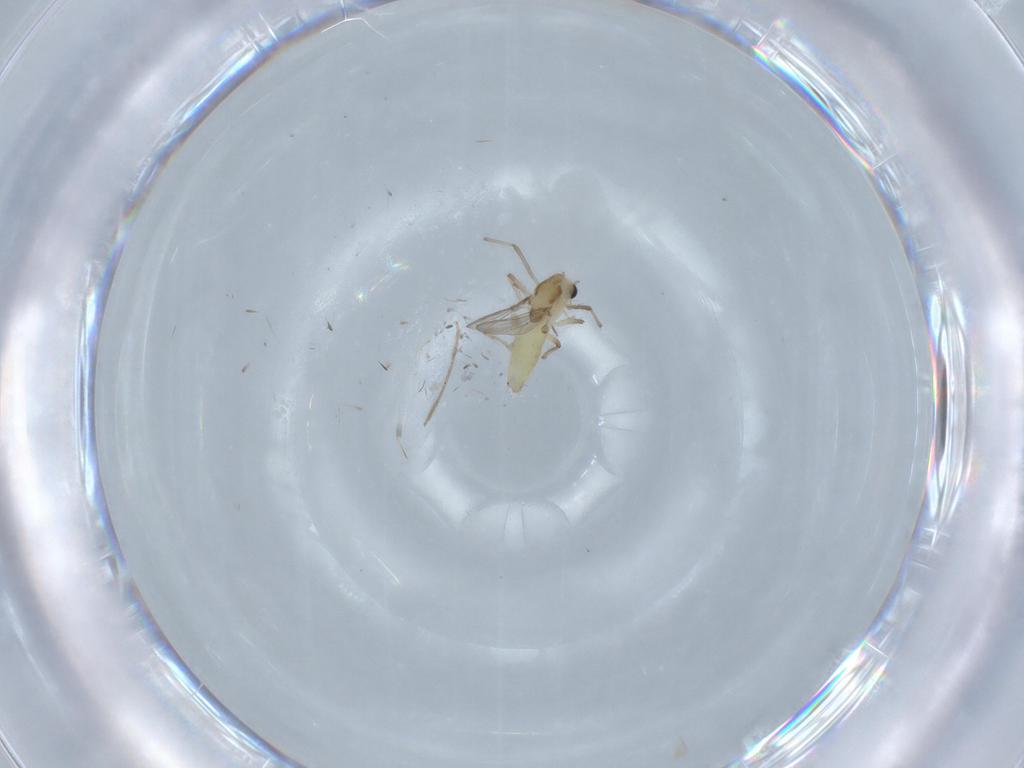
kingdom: Animalia
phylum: Arthropoda
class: Insecta
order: Diptera
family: Chironomidae
